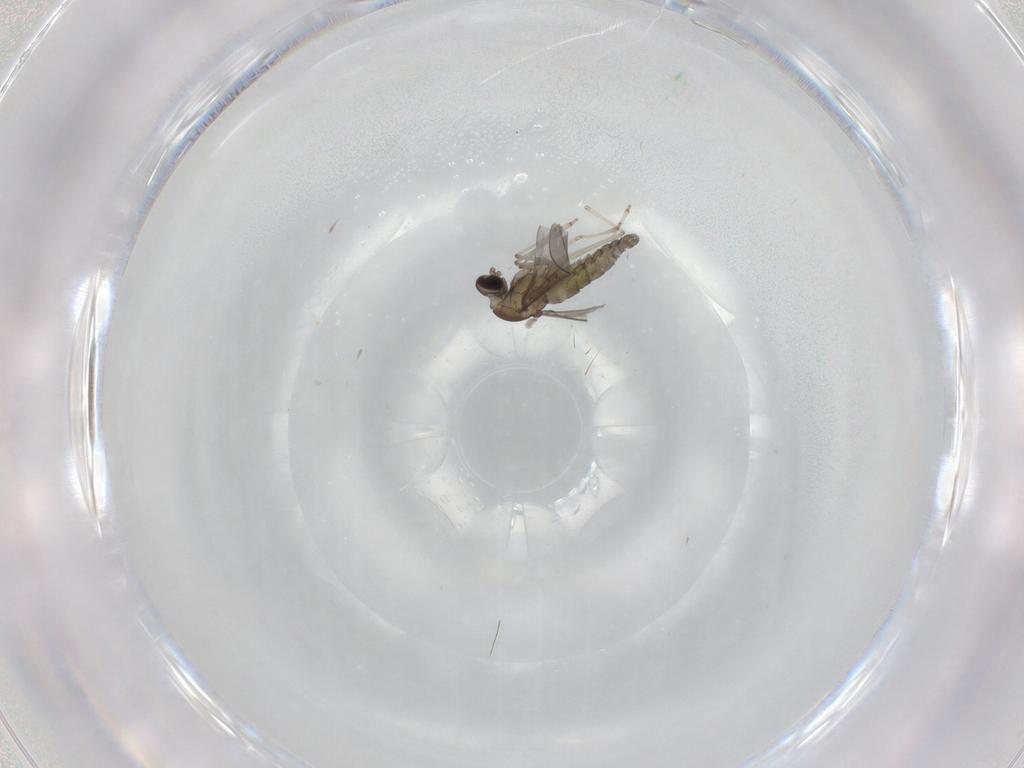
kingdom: Animalia
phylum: Arthropoda
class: Insecta
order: Diptera
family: Cecidomyiidae
